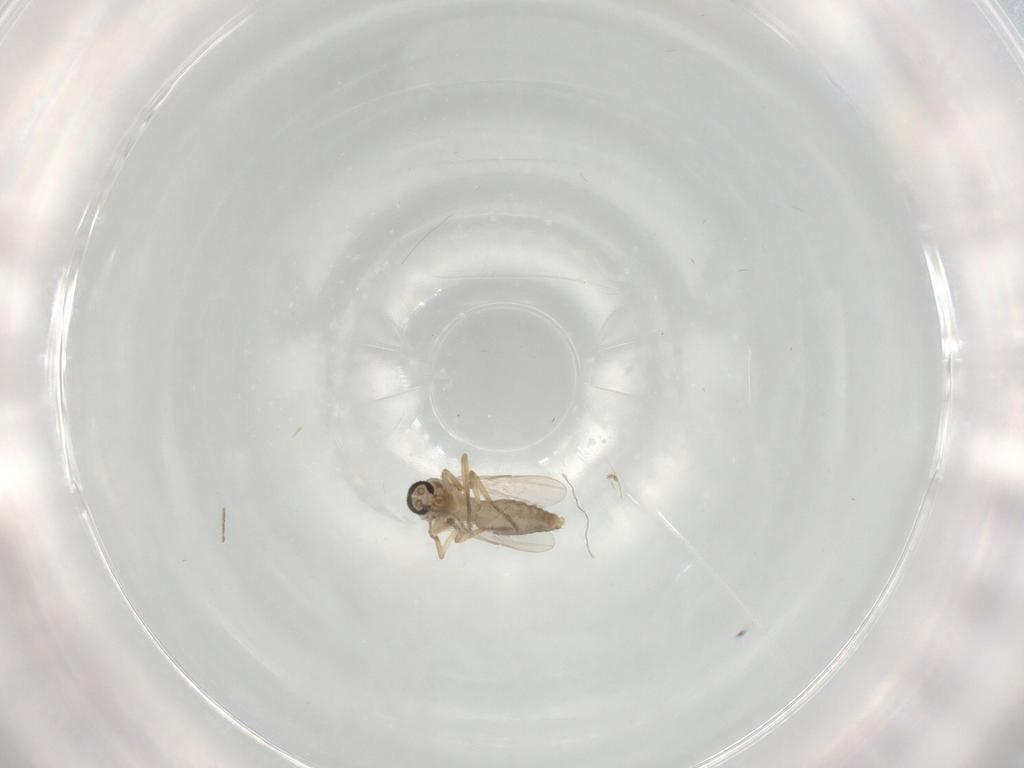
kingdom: Animalia
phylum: Arthropoda
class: Insecta
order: Diptera
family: Ceratopogonidae
